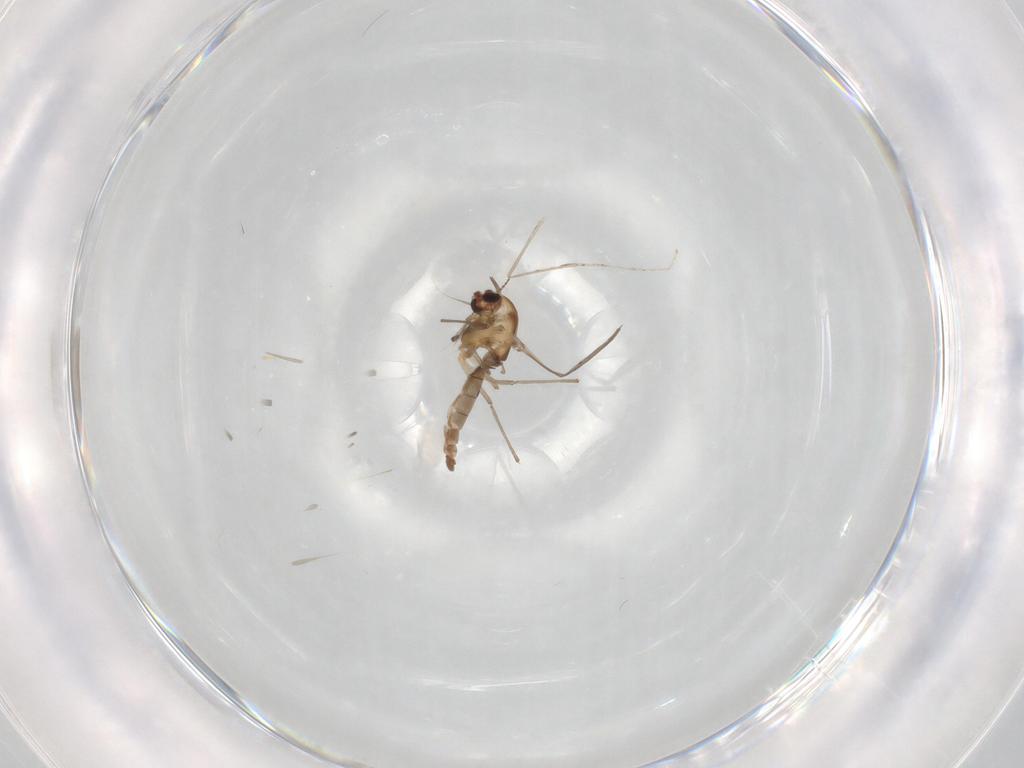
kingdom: Animalia
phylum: Arthropoda
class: Insecta
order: Diptera
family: Chironomidae
